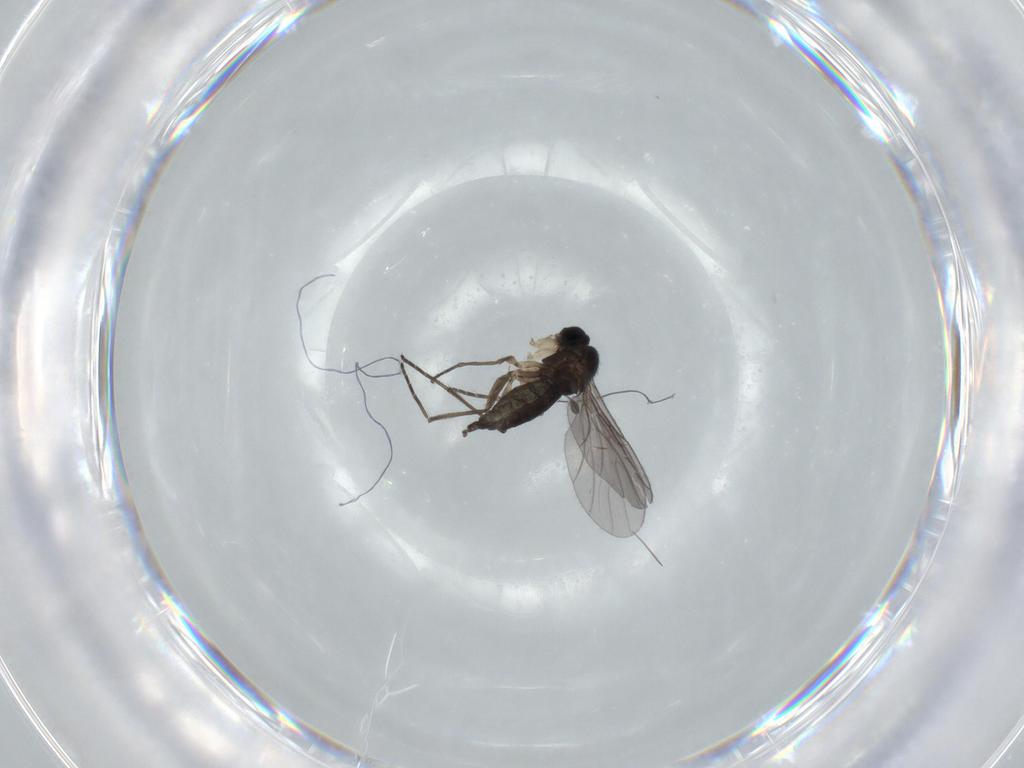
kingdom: Animalia
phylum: Arthropoda
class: Insecta
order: Diptera
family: Sciaridae
